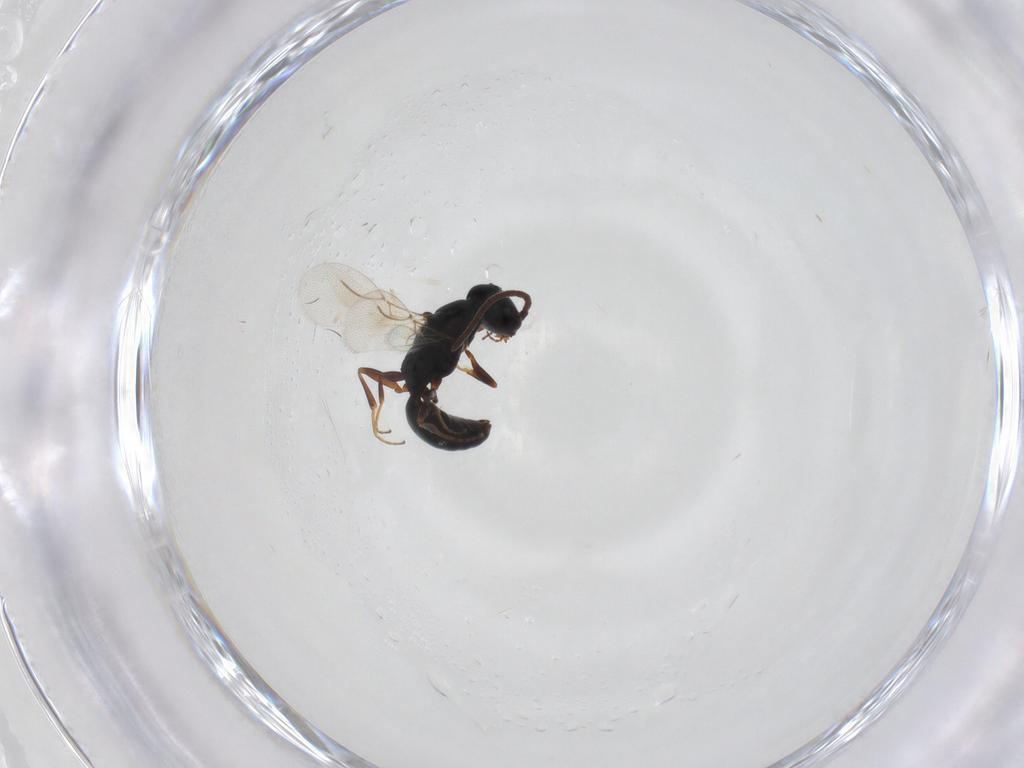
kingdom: Animalia
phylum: Arthropoda
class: Insecta
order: Hymenoptera
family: Bethylidae
